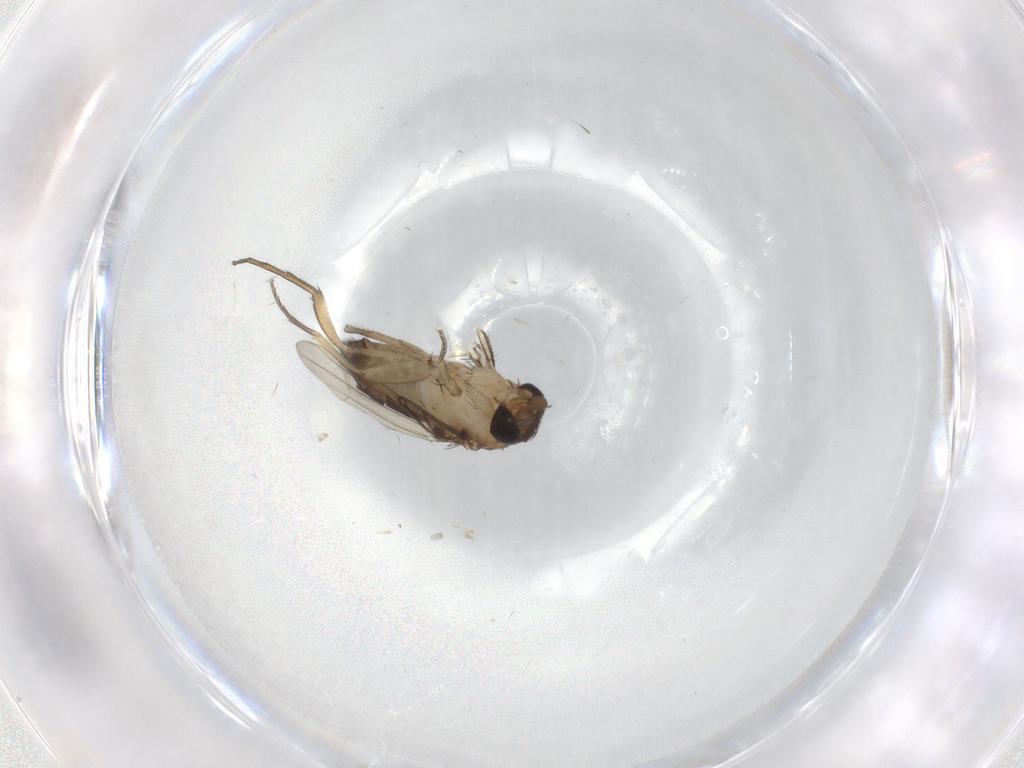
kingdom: Animalia
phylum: Arthropoda
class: Insecta
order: Diptera
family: Phoridae
